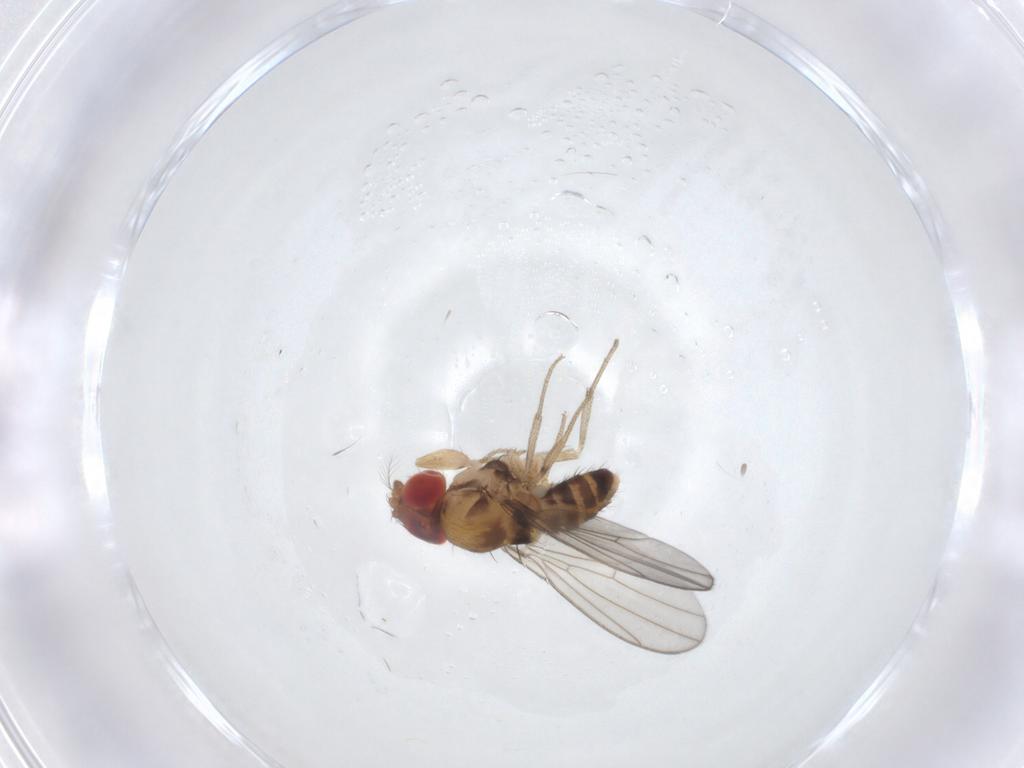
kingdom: Animalia
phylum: Arthropoda
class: Insecta
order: Diptera
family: Drosophilidae
